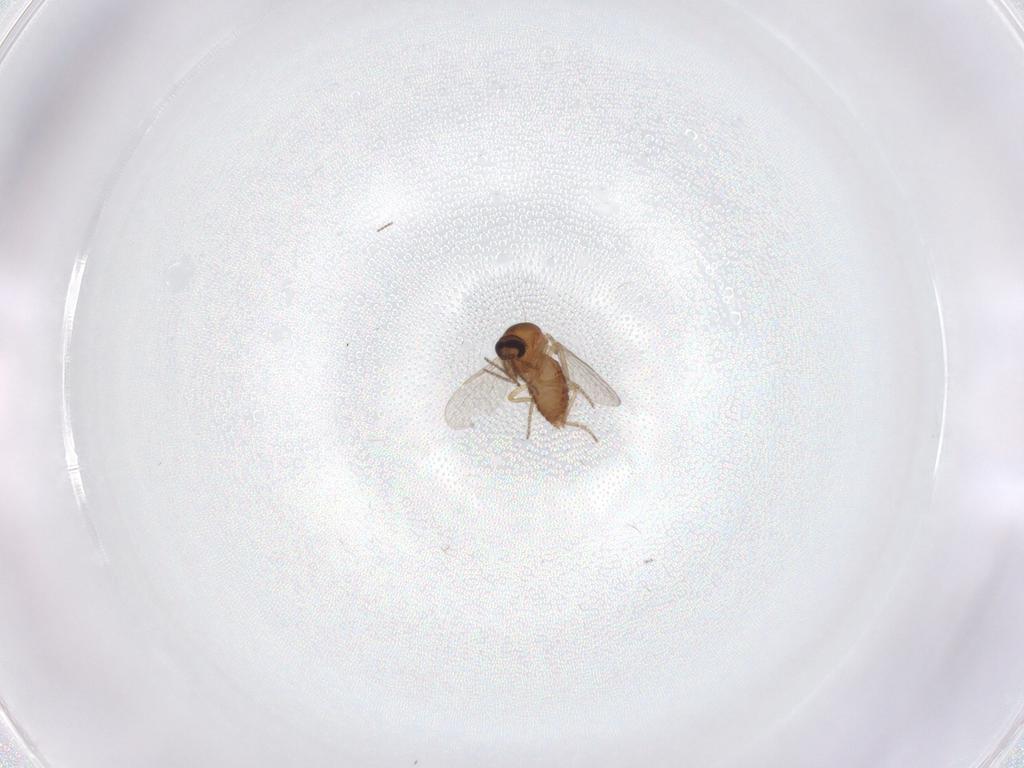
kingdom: Animalia
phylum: Arthropoda
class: Insecta
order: Diptera
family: Ceratopogonidae
